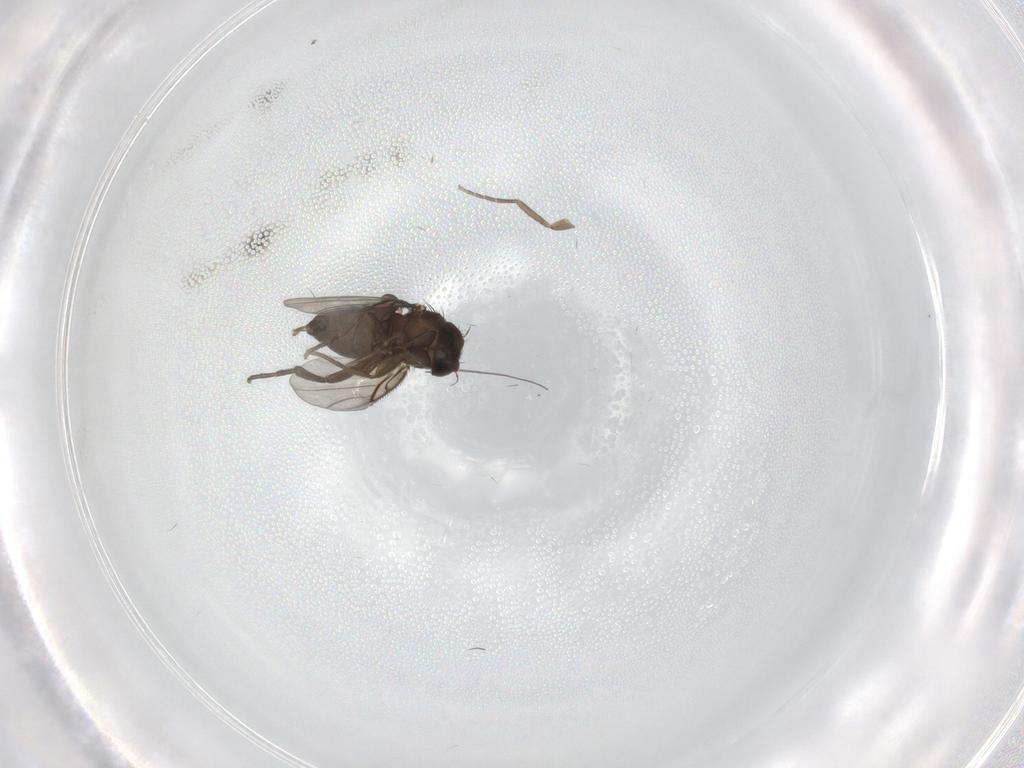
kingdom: Animalia
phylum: Arthropoda
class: Insecta
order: Diptera
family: Phoridae
